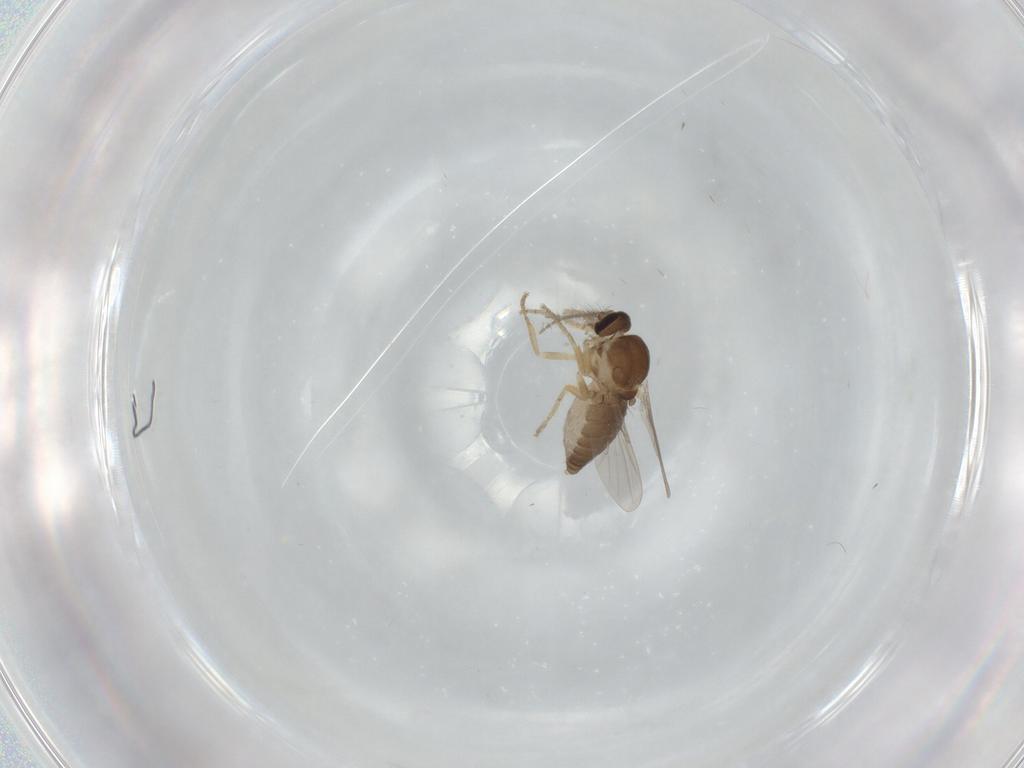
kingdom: Animalia
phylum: Arthropoda
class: Insecta
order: Diptera
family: Ceratopogonidae
